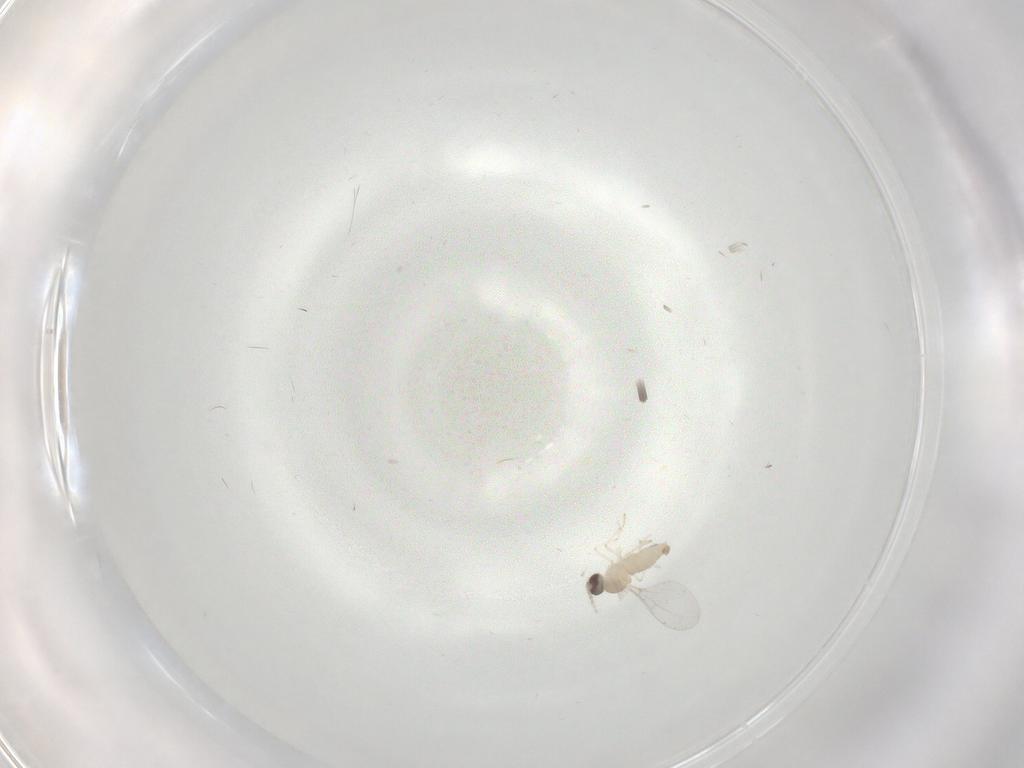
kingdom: Animalia
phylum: Arthropoda
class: Insecta
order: Diptera
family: Cecidomyiidae
